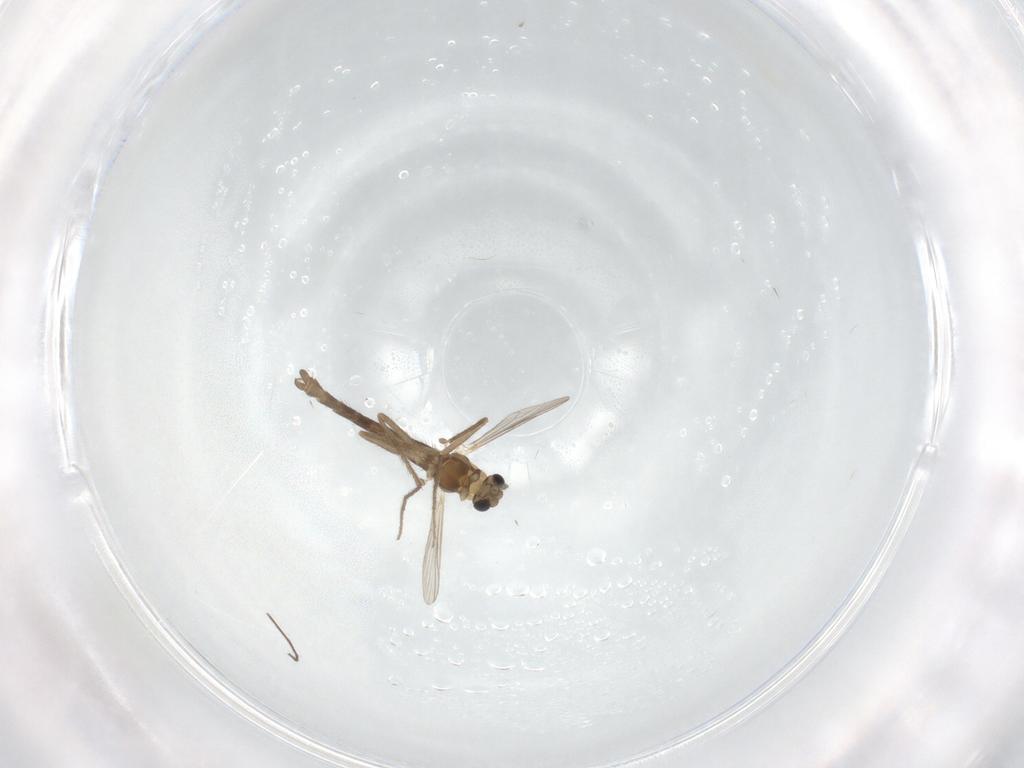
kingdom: Animalia
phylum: Arthropoda
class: Insecta
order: Diptera
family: Chironomidae
